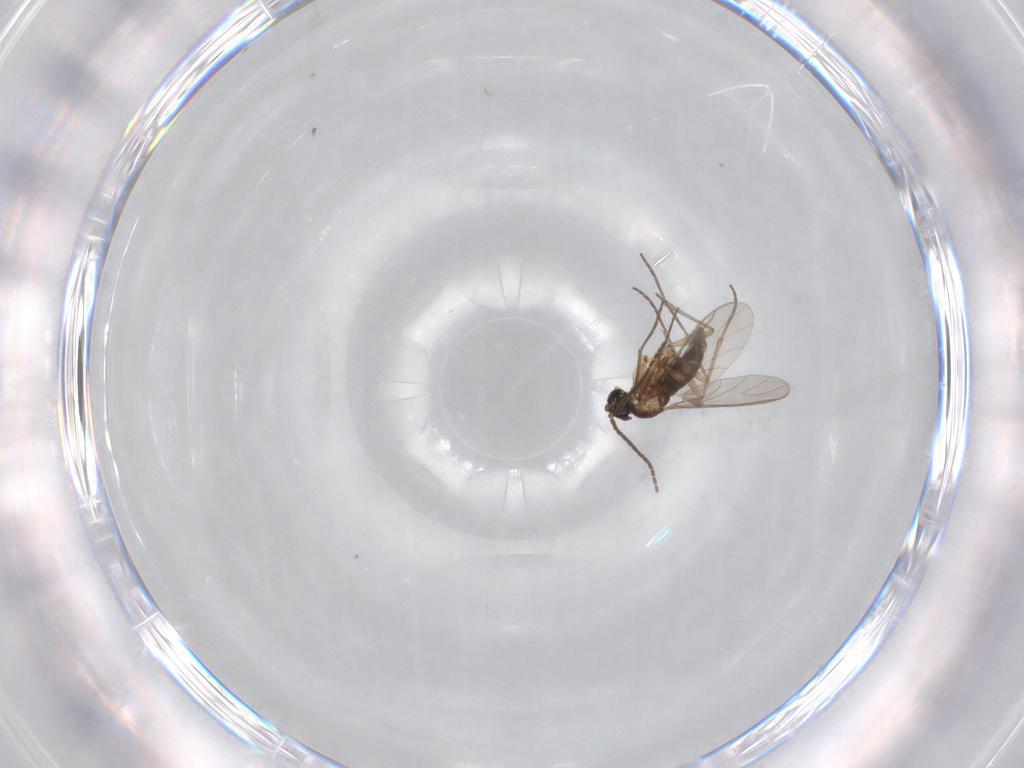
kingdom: Animalia
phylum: Arthropoda
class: Insecta
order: Diptera
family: Sciaridae
